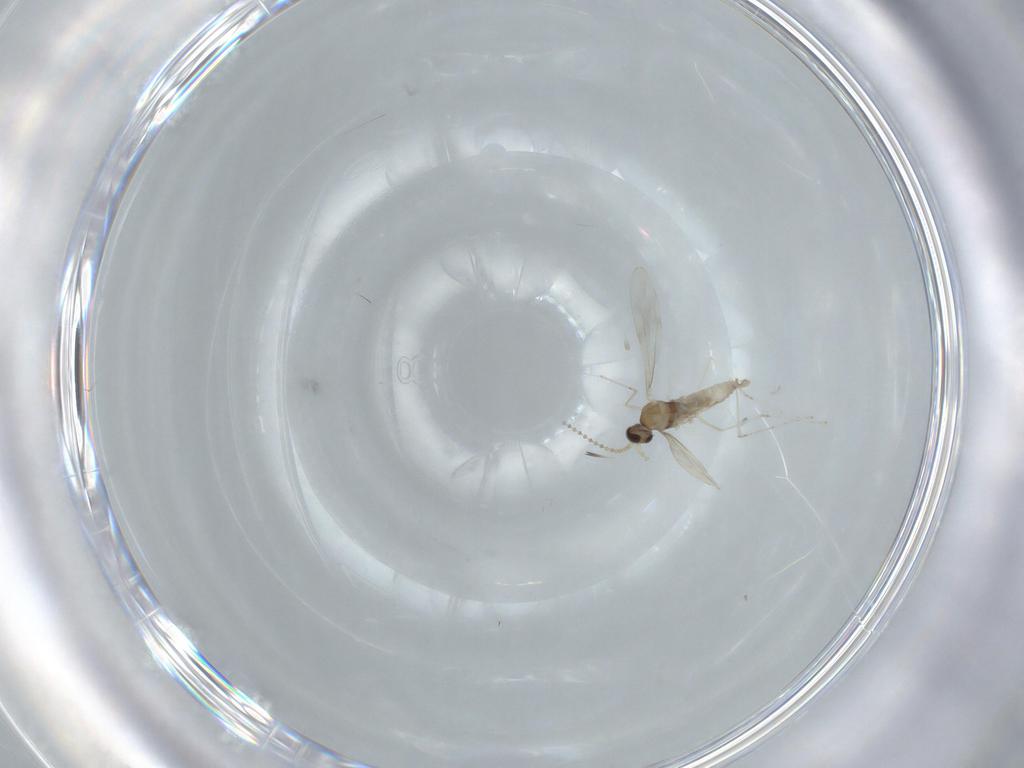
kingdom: Animalia
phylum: Arthropoda
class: Insecta
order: Diptera
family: Cecidomyiidae
